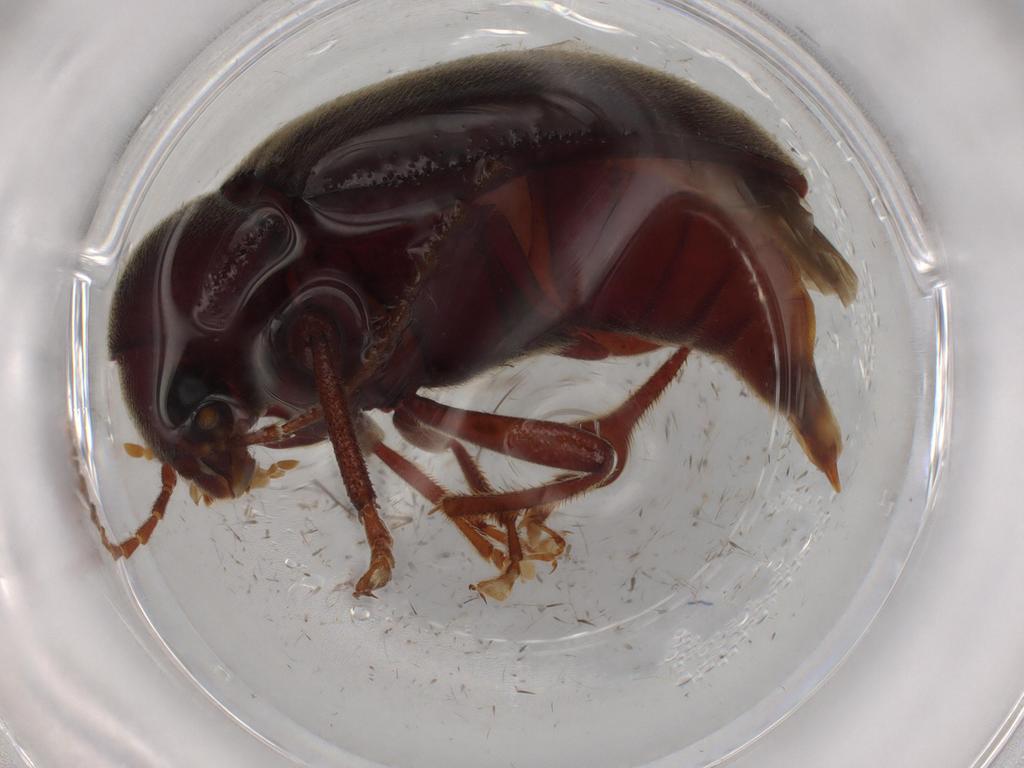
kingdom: Animalia
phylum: Arthropoda
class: Insecta
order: Coleoptera
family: Ptilodactylidae
